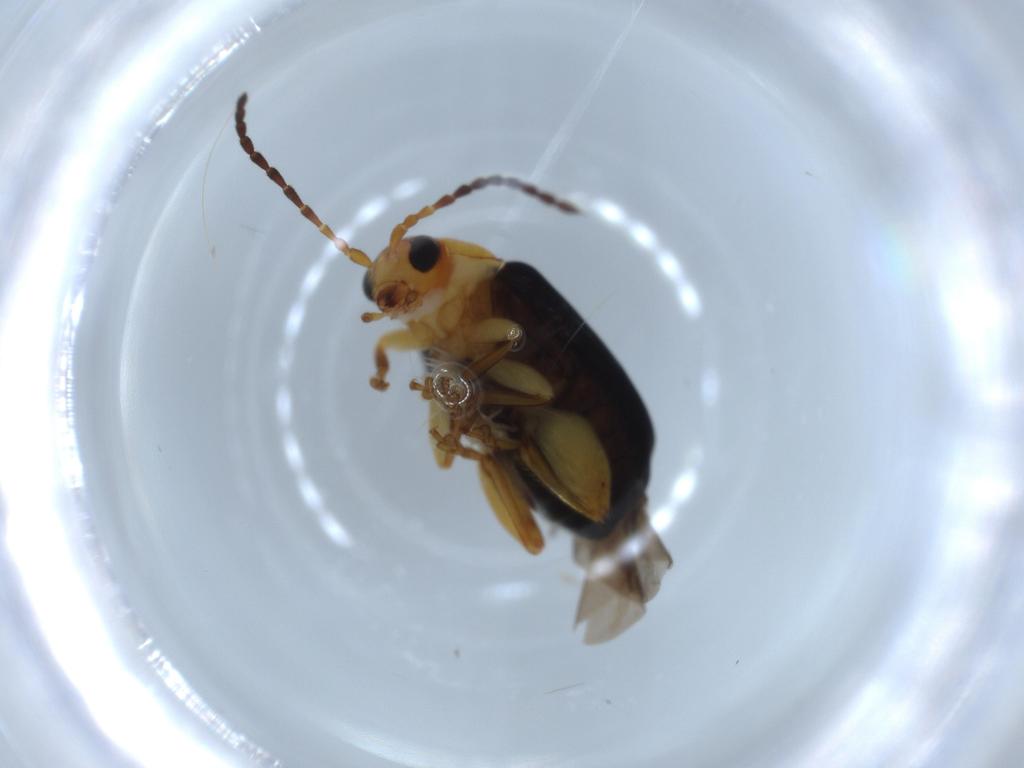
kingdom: Animalia
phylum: Arthropoda
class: Insecta
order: Coleoptera
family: Chrysomelidae
